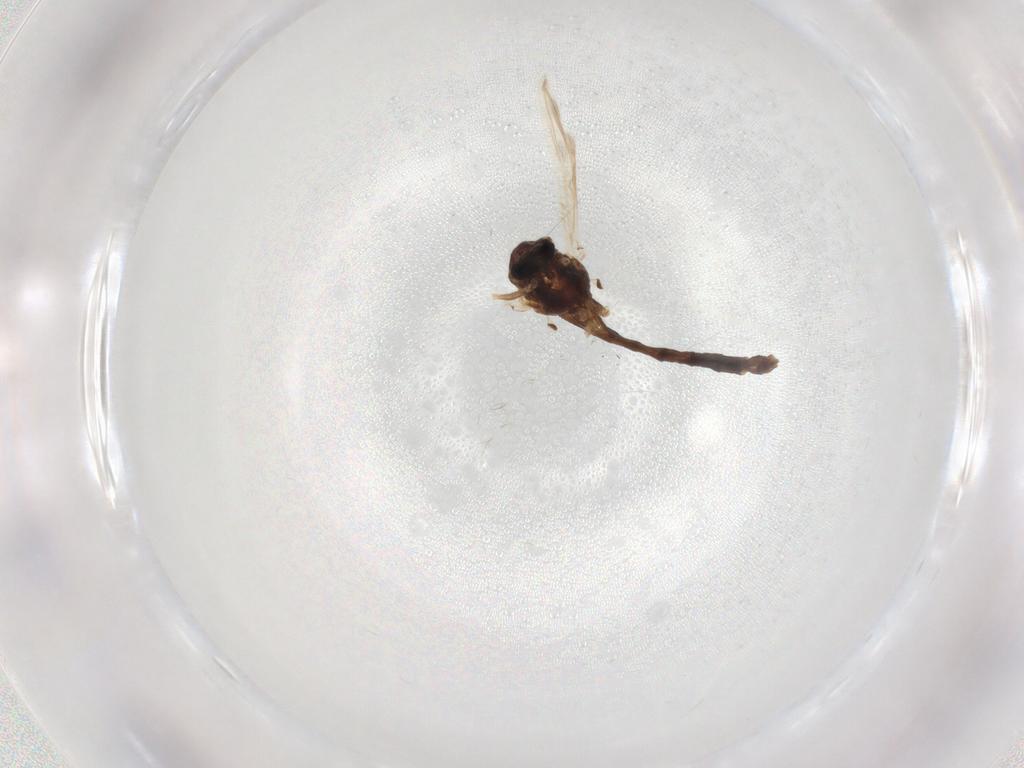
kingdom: Animalia
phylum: Arthropoda
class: Insecta
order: Diptera
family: Chironomidae
